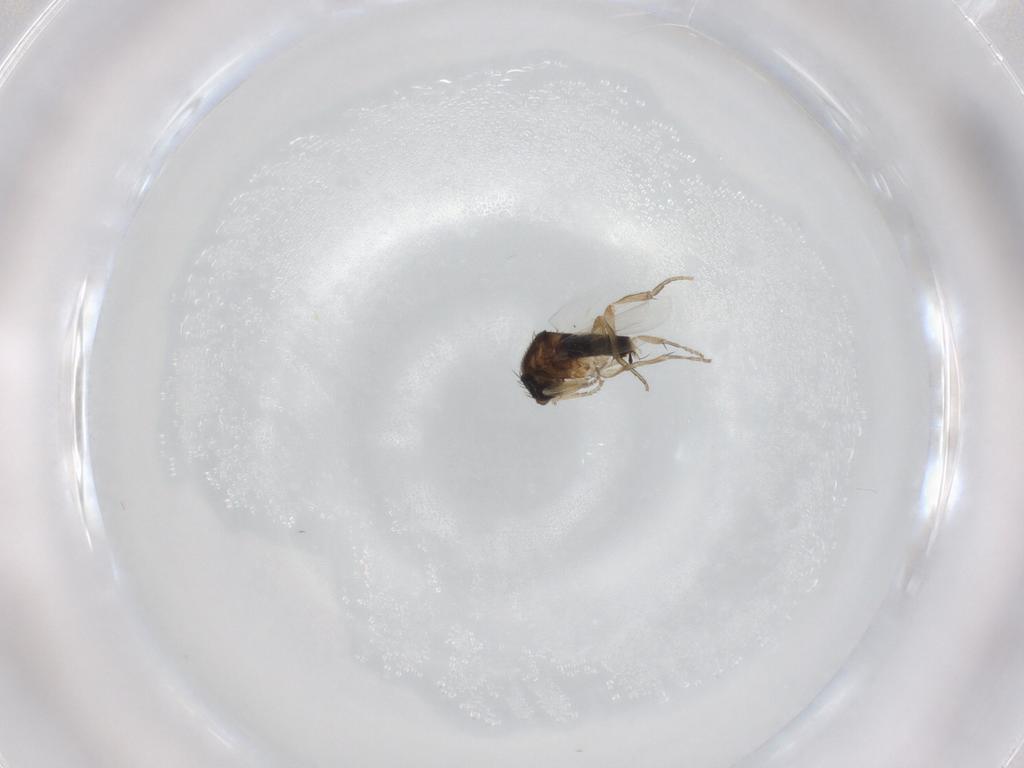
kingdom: Animalia
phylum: Arthropoda
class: Insecta
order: Diptera
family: Phoridae
